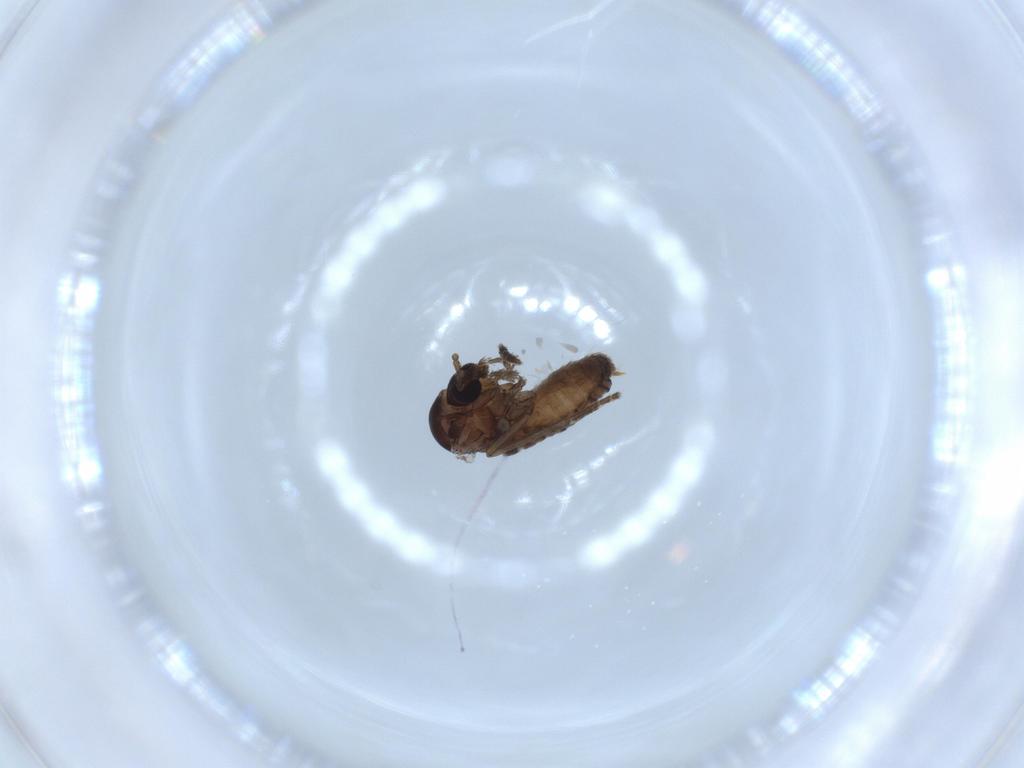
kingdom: Animalia
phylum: Arthropoda
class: Insecta
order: Diptera
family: Psychodidae
